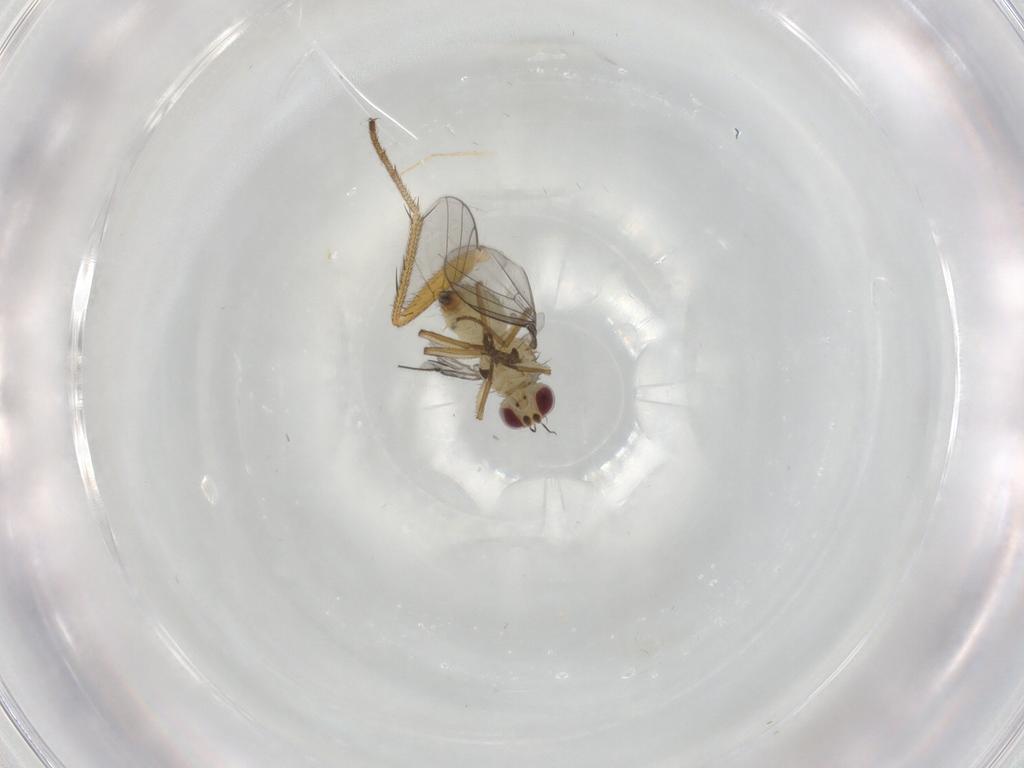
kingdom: Animalia
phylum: Arthropoda
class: Insecta
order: Diptera
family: Agromyzidae
